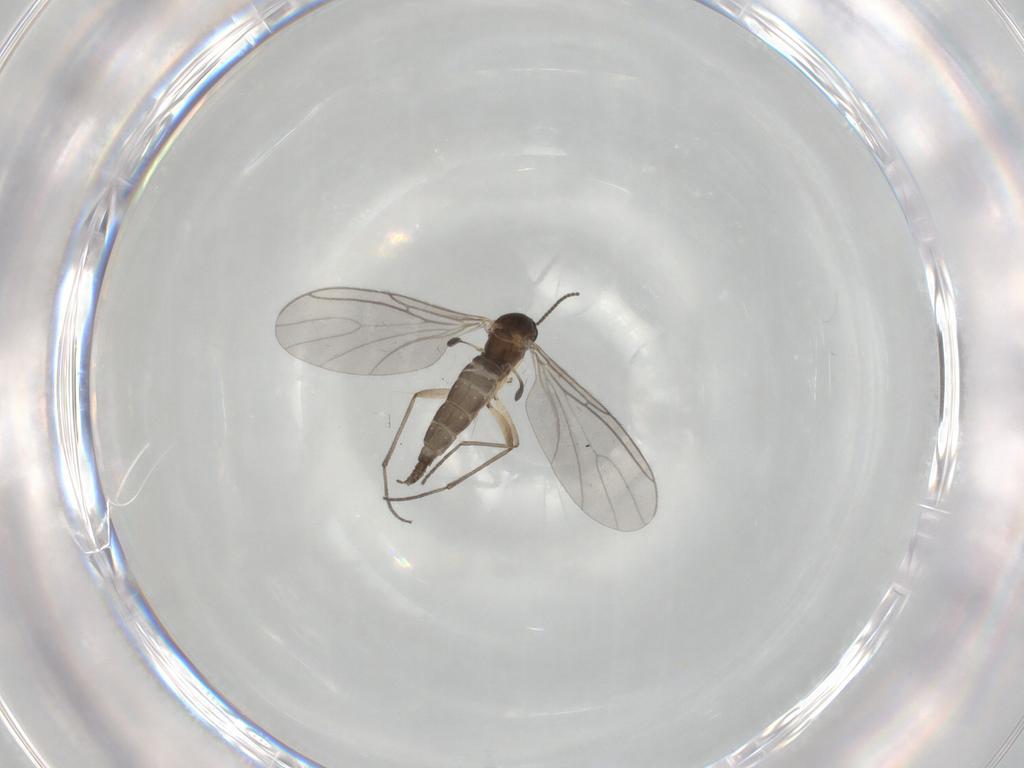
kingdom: Animalia
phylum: Arthropoda
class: Insecta
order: Diptera
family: Sciaridae
